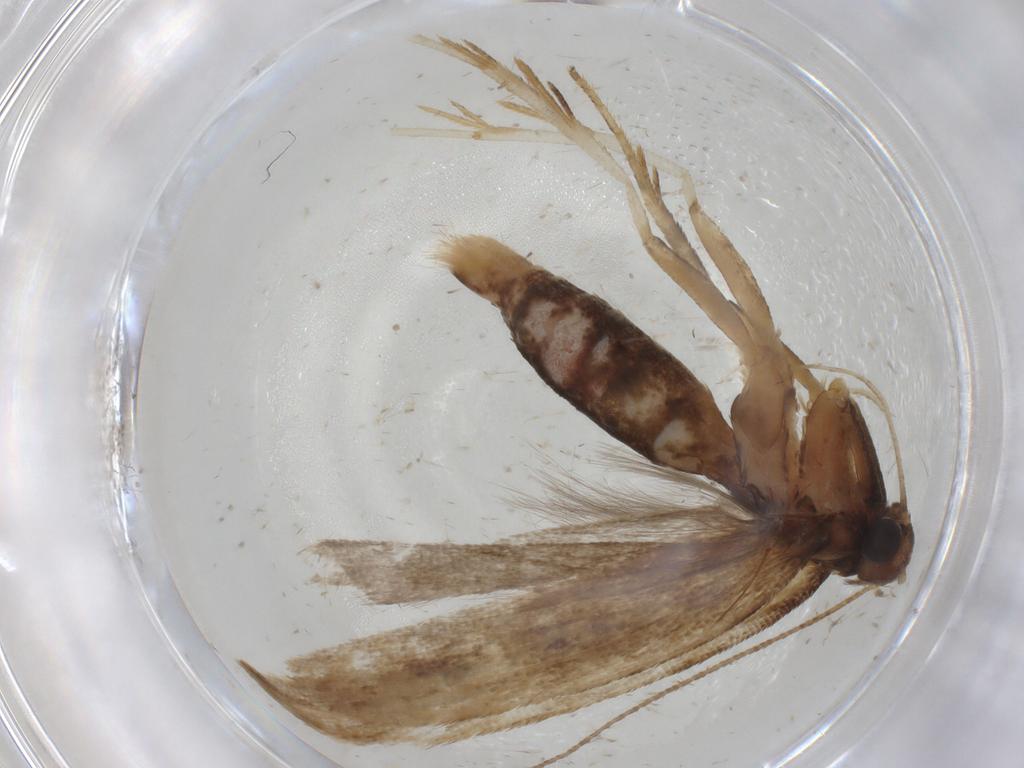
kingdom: Animalia
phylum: Arthropoda
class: Insecta
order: Lepidoptera
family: Gelechiidae
